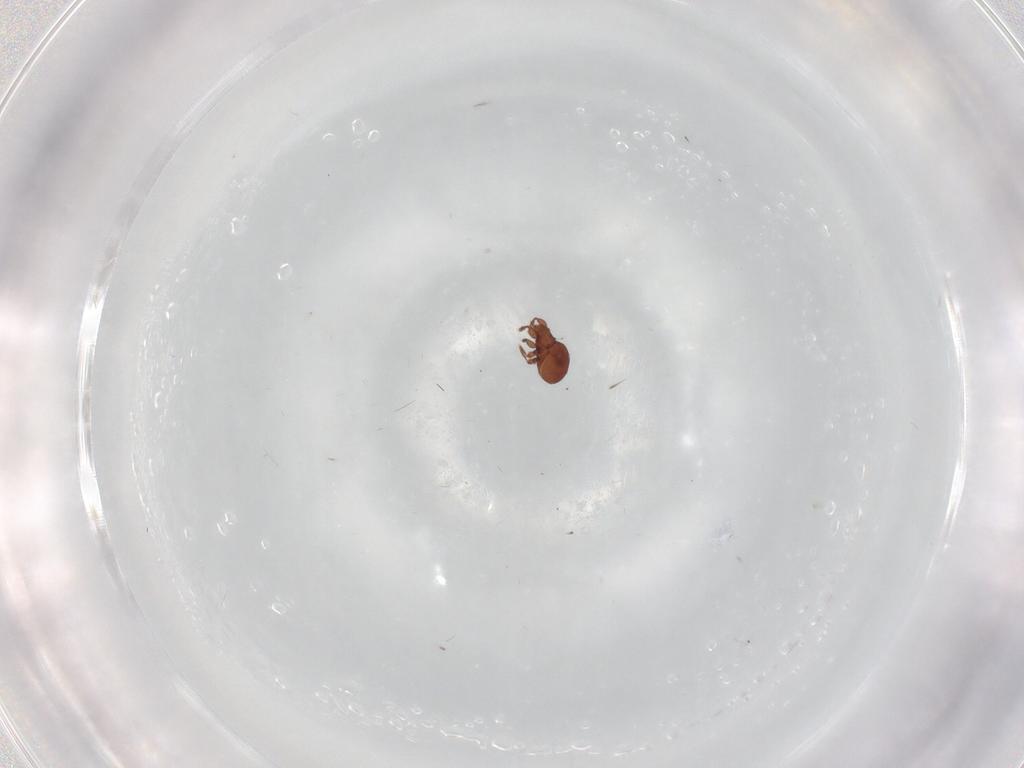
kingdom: Animalia
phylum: Arthropoda
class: Arachnida
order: Sarcoptiformes
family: Eremaeidae
